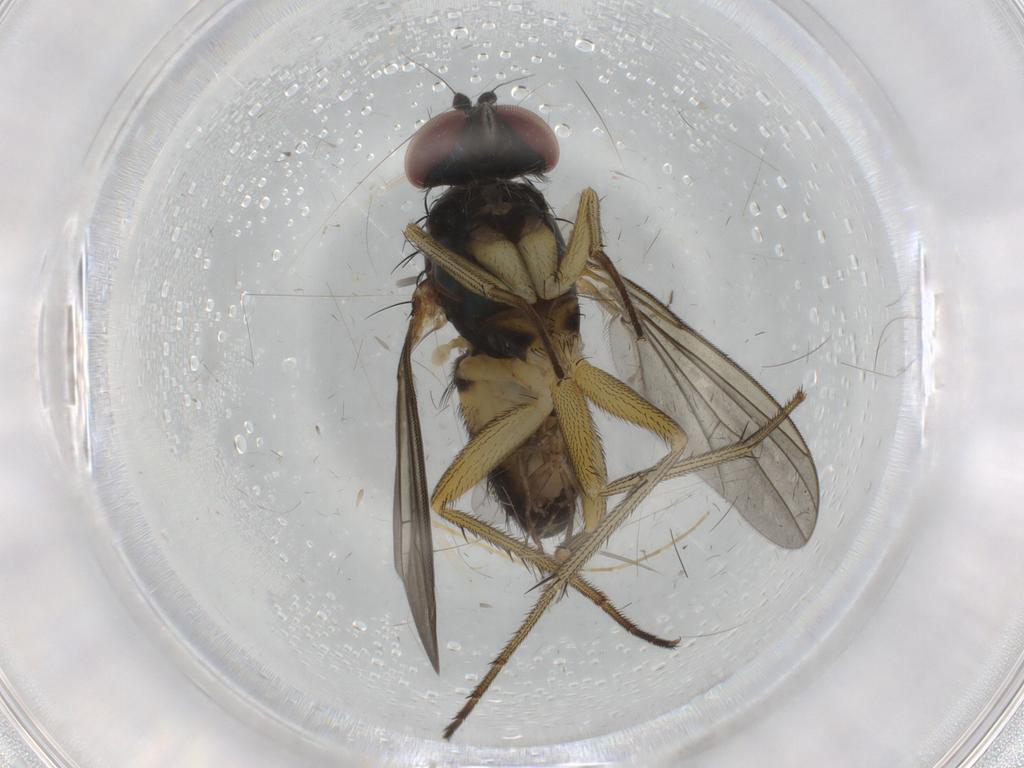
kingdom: Animalia
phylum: Arthropoda
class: Insecta
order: Diptera
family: Dolichopodidae
